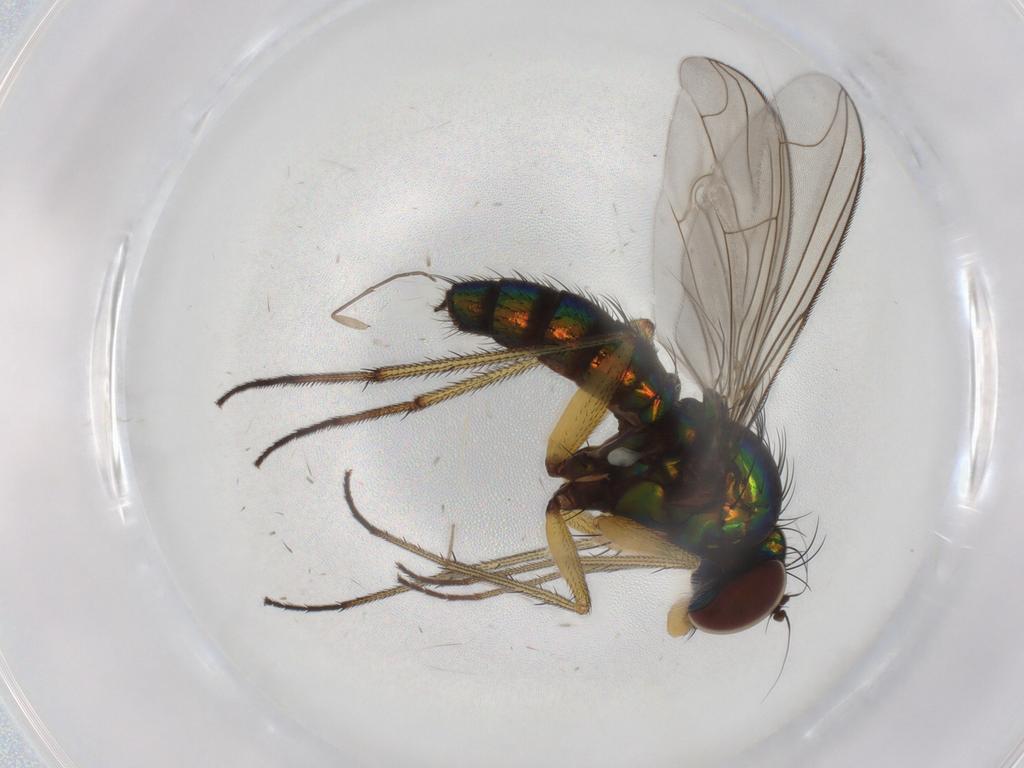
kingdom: Animalia
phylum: Arthropoda
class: Insecta
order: Diptera
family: Dolichopodidae
